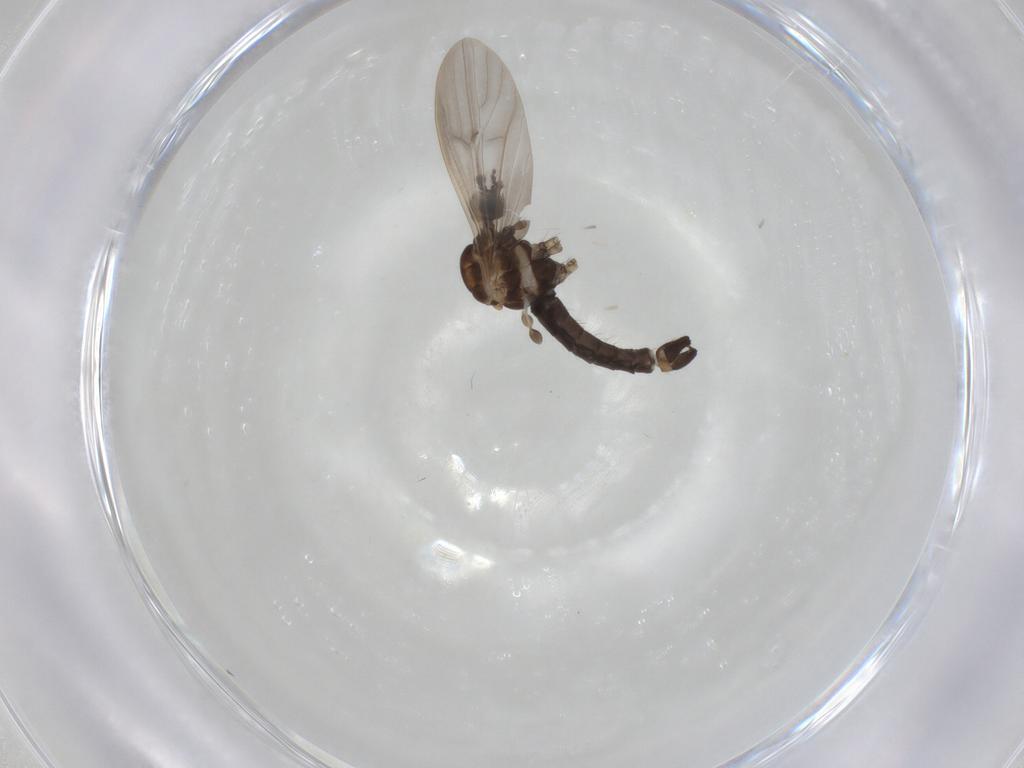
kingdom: Animalia
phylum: Arthropoda
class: Insecta
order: Diptera
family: Limoniidae
